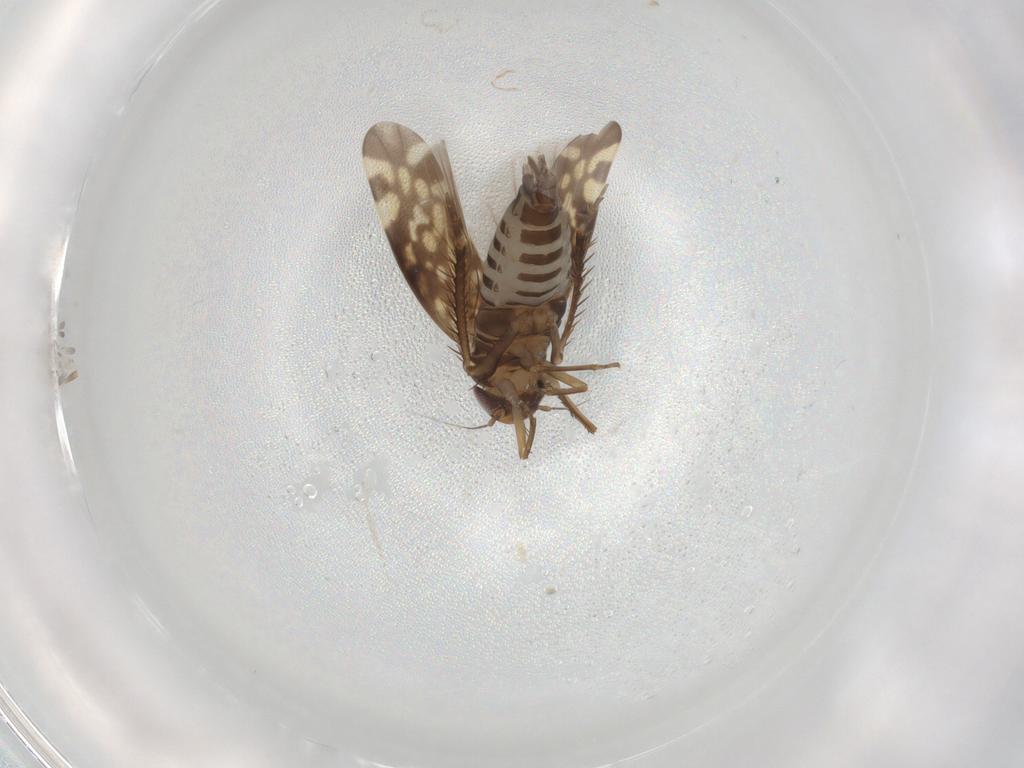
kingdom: Animalia
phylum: Arthropoda
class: Insecta
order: Hemiptera
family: Cicadellidae
